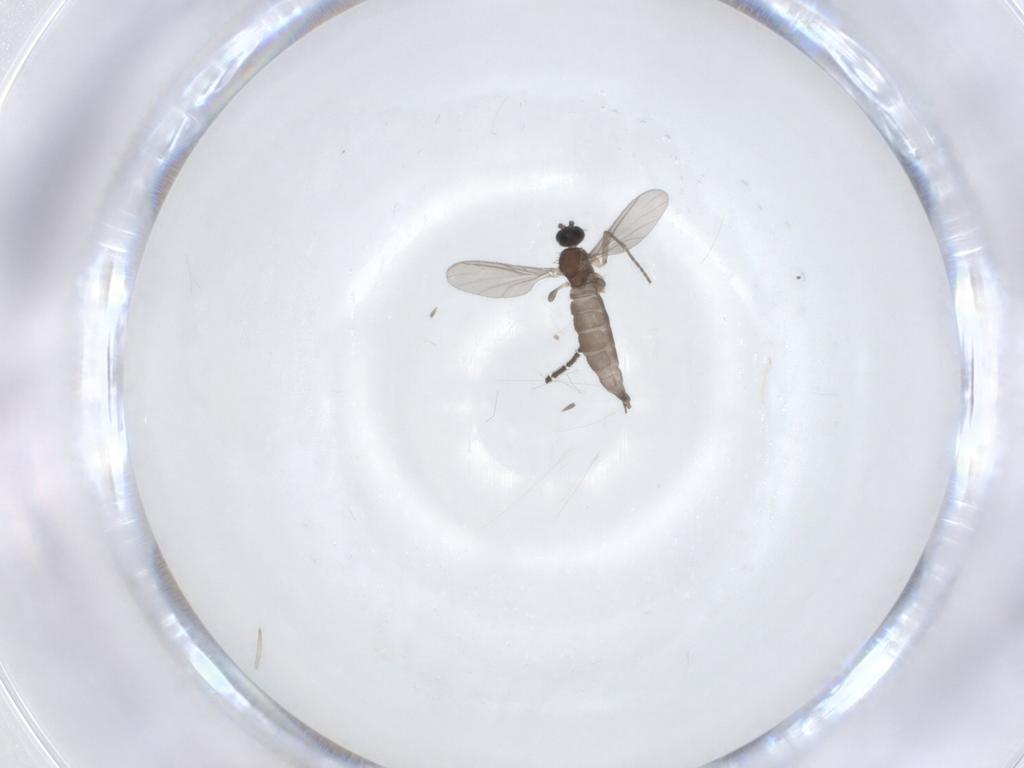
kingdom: Animalia
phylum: Arthropoda
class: Insecta
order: Diptera
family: Sciaridae
